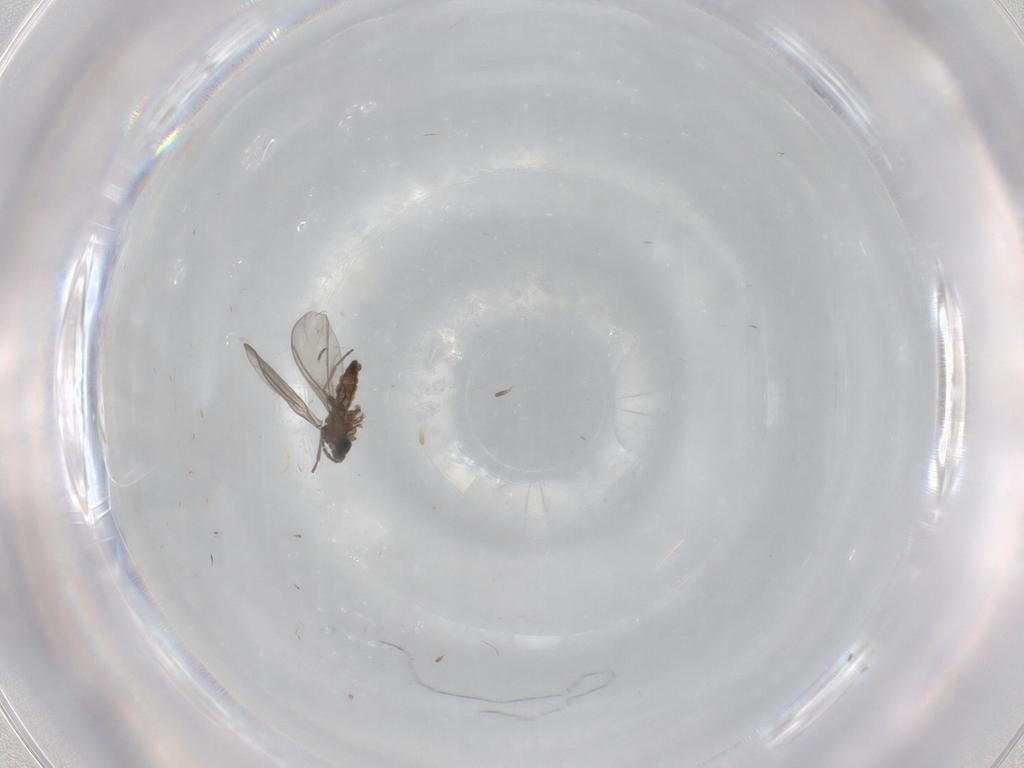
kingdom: Animalia
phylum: Arthropoda
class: Insecta
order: Diptera
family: Sciaridae
